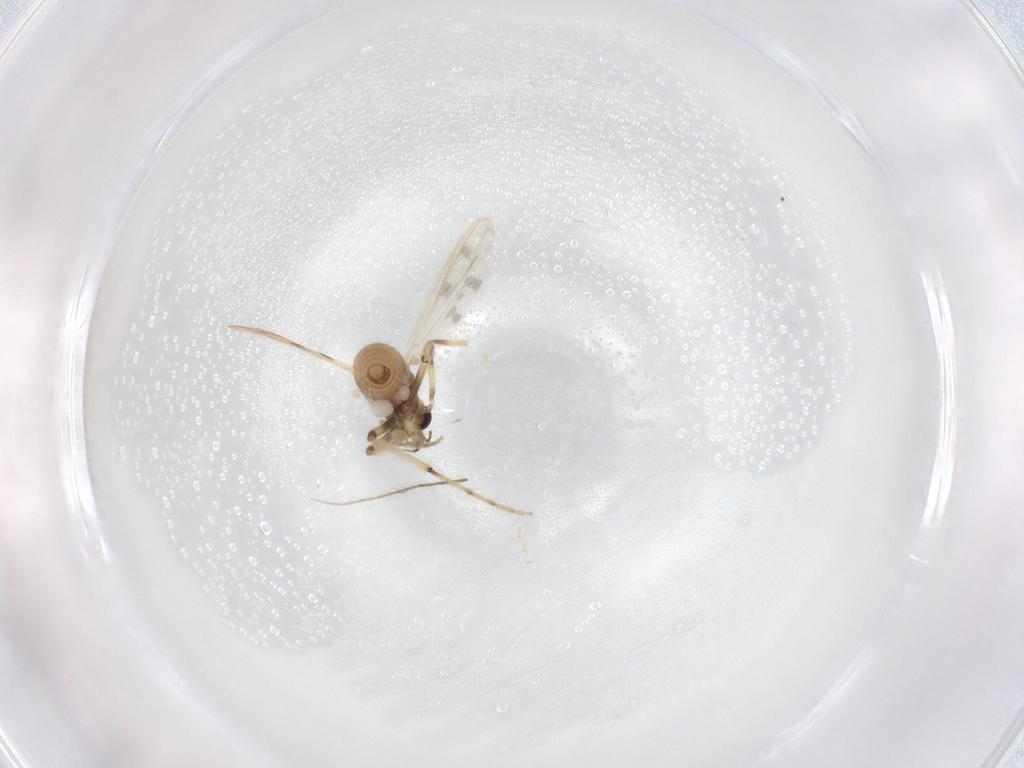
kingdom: Animalia
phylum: Arthropoda
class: Insecta
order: Diptera
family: Chironomidae
